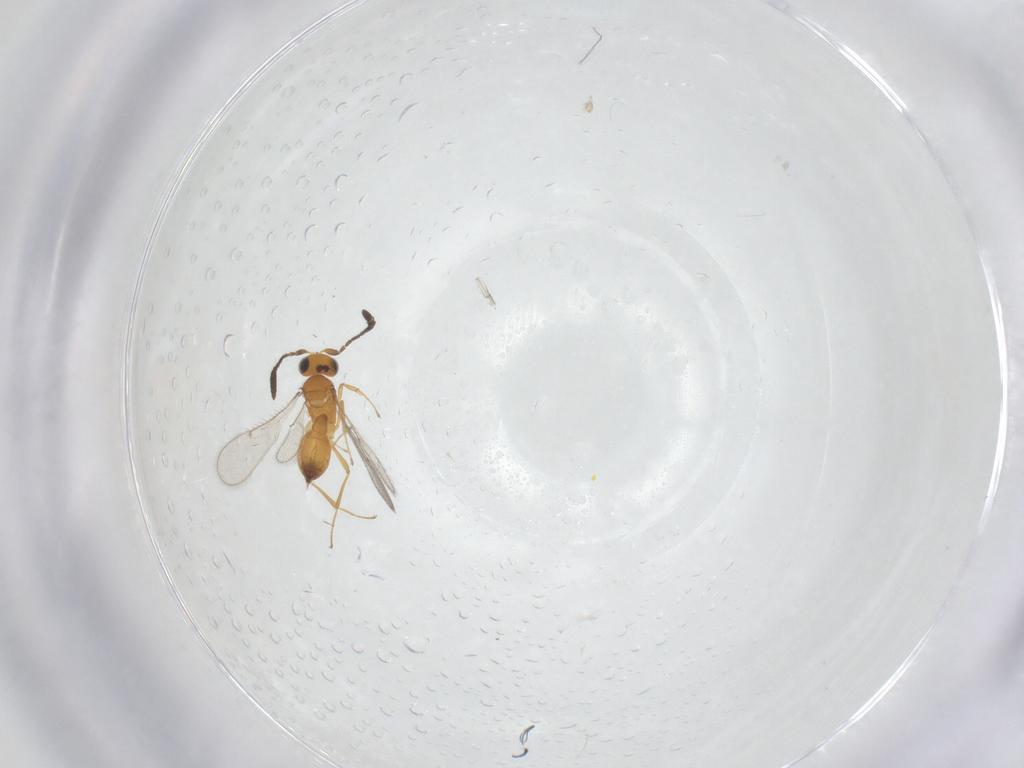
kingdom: Animalia
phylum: Arthropoda
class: Insecta
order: Hymenoptera
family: Scelionidae
